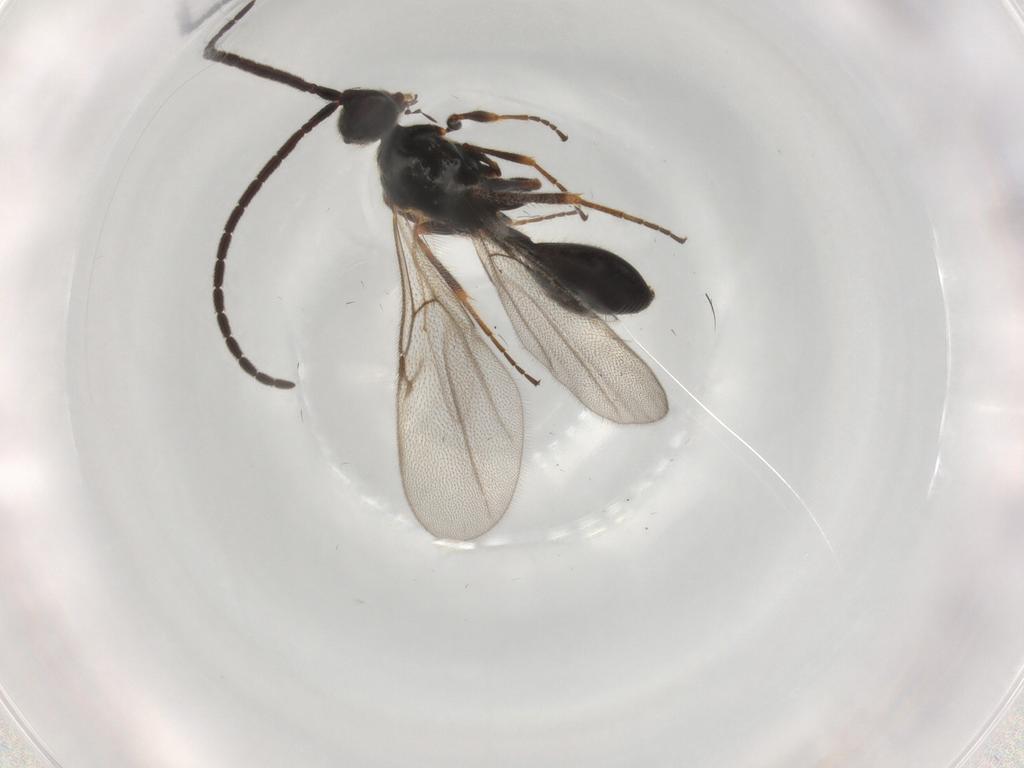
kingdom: Animalia
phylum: Arthropoda
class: Insecta
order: Hymenoptera
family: Diapriidae
